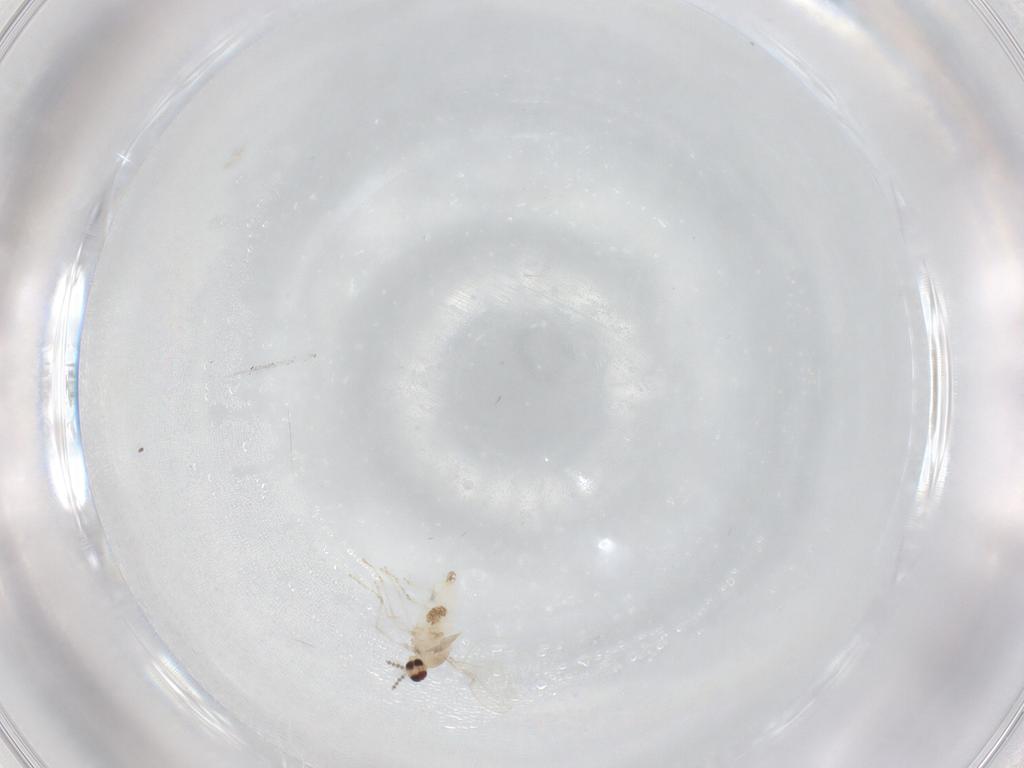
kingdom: Animalia
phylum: Arthropoda
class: Insecta
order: Diptera
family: Cecidomyiidae
